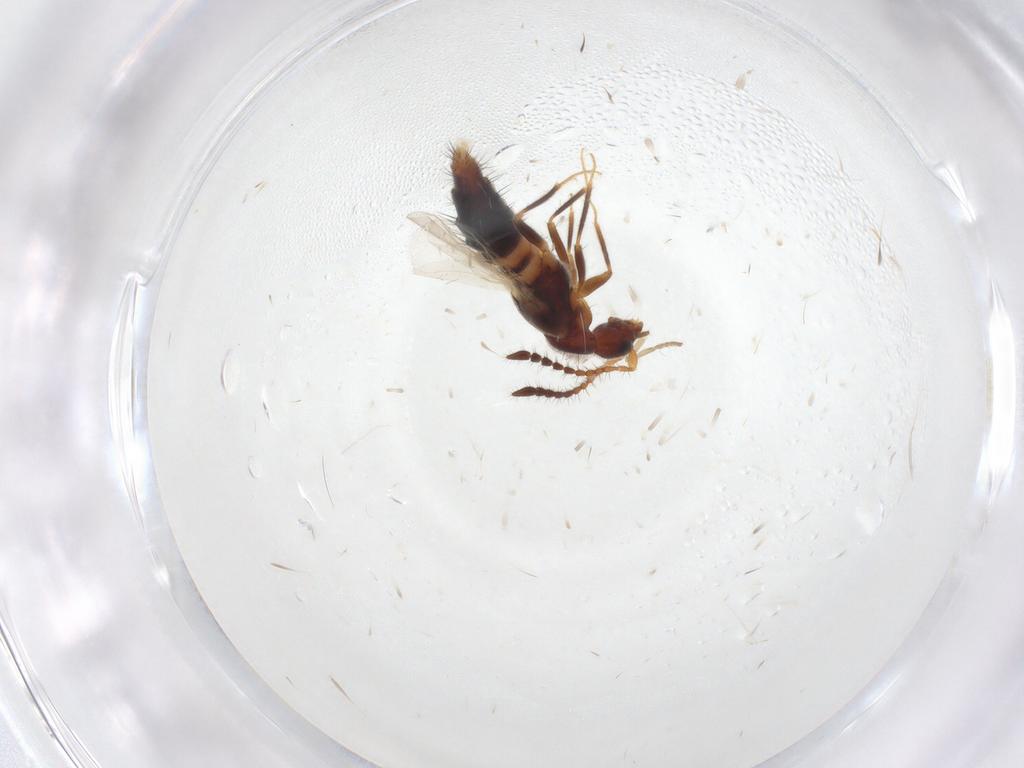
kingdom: Animalia
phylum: Arthropoda
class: Insecta
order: Coleoptera
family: Staphylinidae
